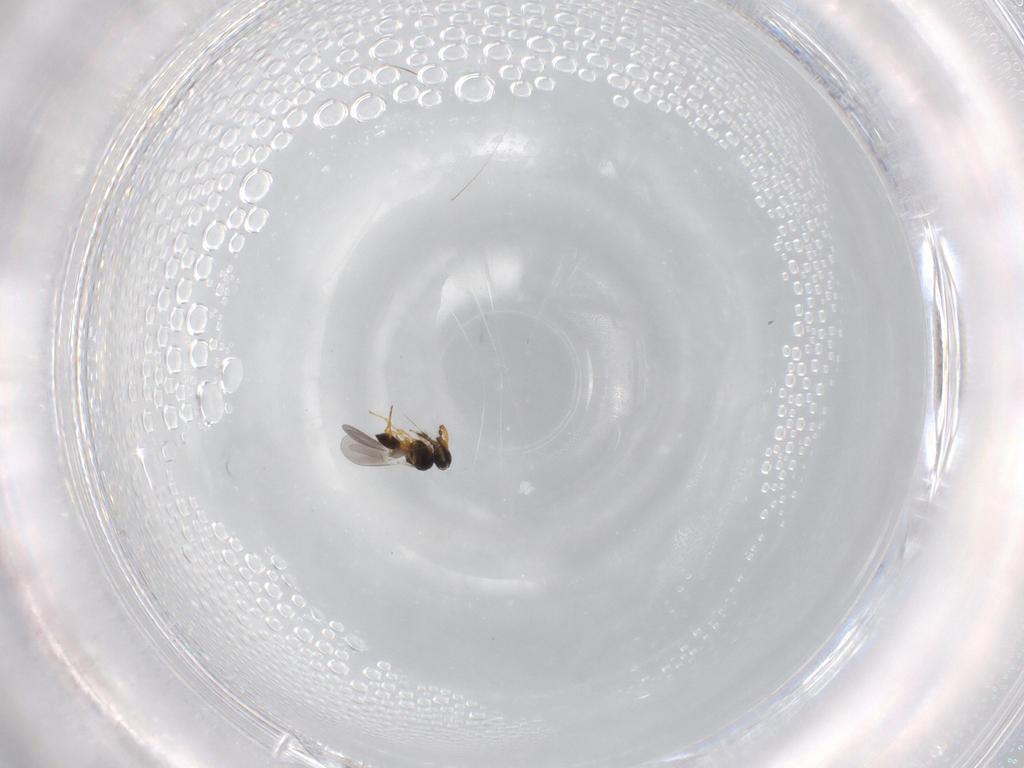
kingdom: Animalia
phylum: Arthropoda
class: Insecta
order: Hymenoptera
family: Platygastridae
